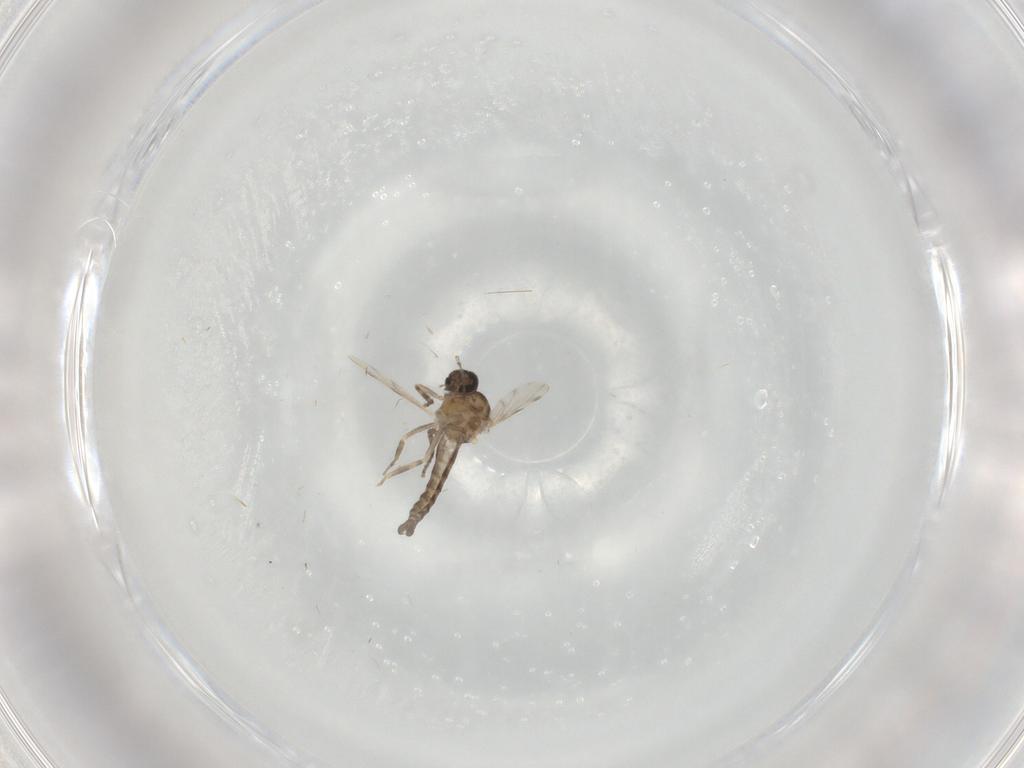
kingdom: Animalia
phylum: Arthropoda
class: Insecta
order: Diptera
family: Ceratopogonidae
